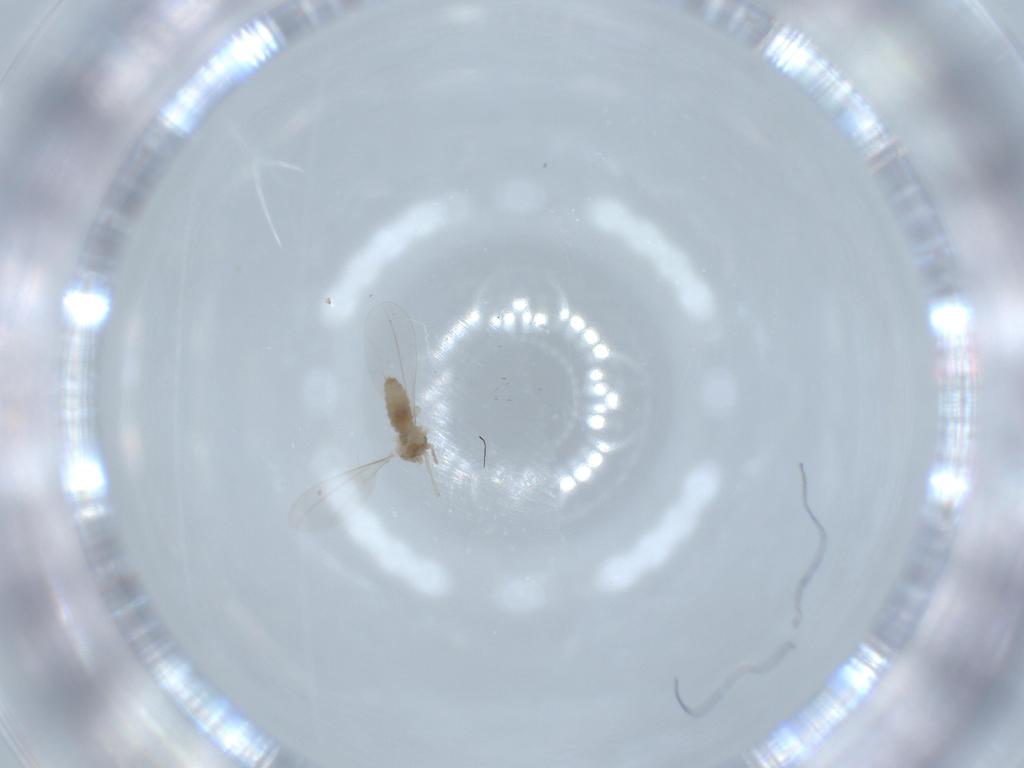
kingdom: Animalia
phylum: Arthropoda
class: Insecta
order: Diptera
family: Cecidomyiidae
